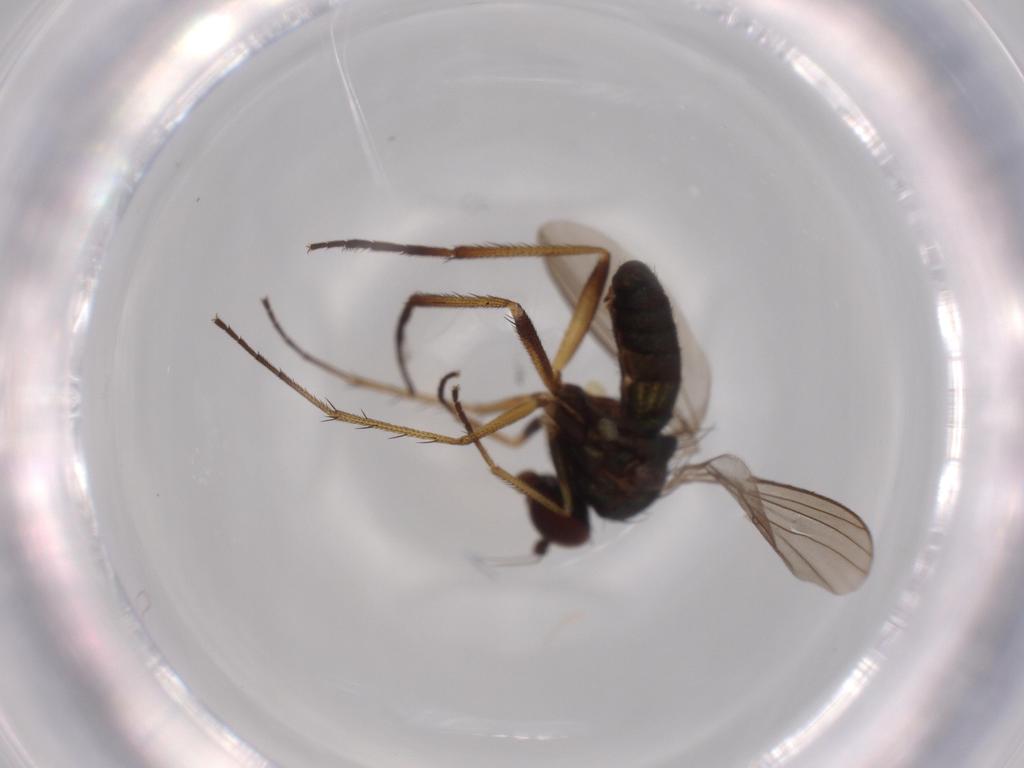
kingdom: Animalia
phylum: Arthropoda
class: Insecta
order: Diptera
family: Dolichopodidae
